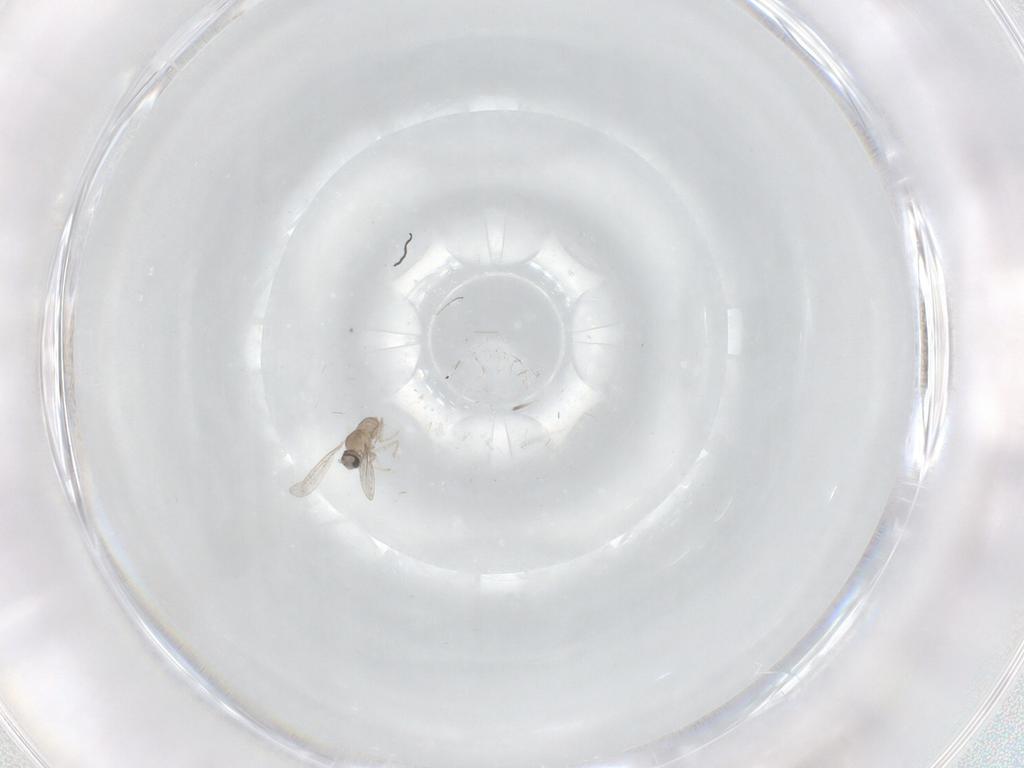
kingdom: Animalia
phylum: Arthropoda
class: Insecta
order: Diptera
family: Cecidomyiidae
